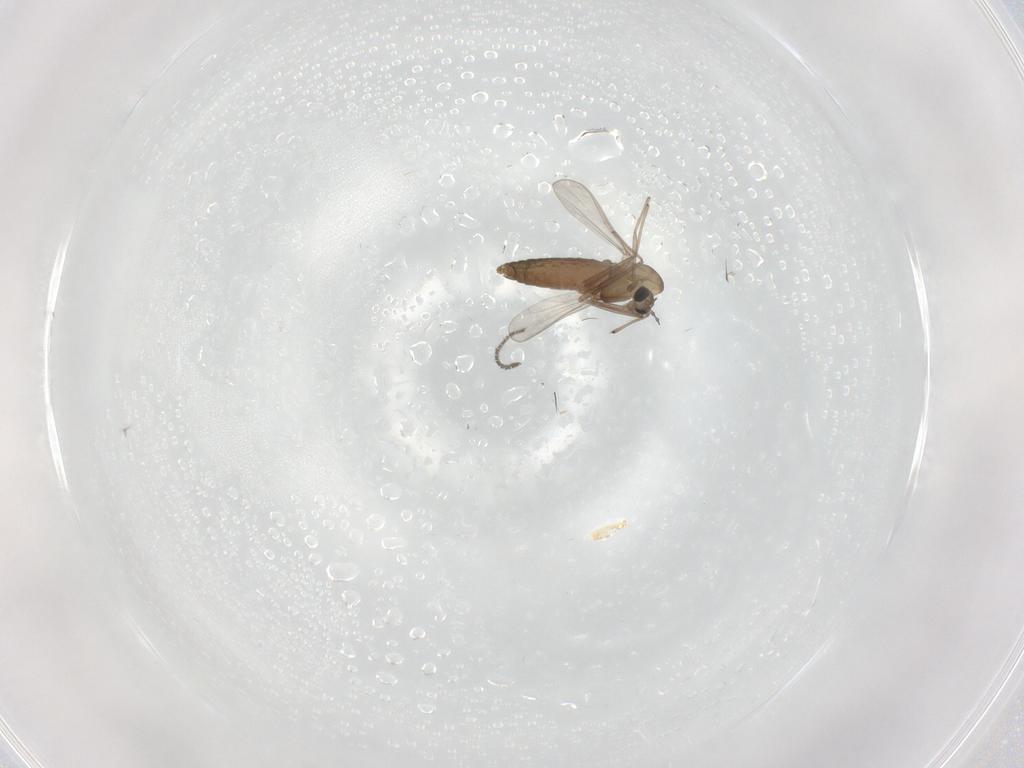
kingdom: Animalia
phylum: Arthropoda
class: Insecta
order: Diptera
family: Chironomidae
